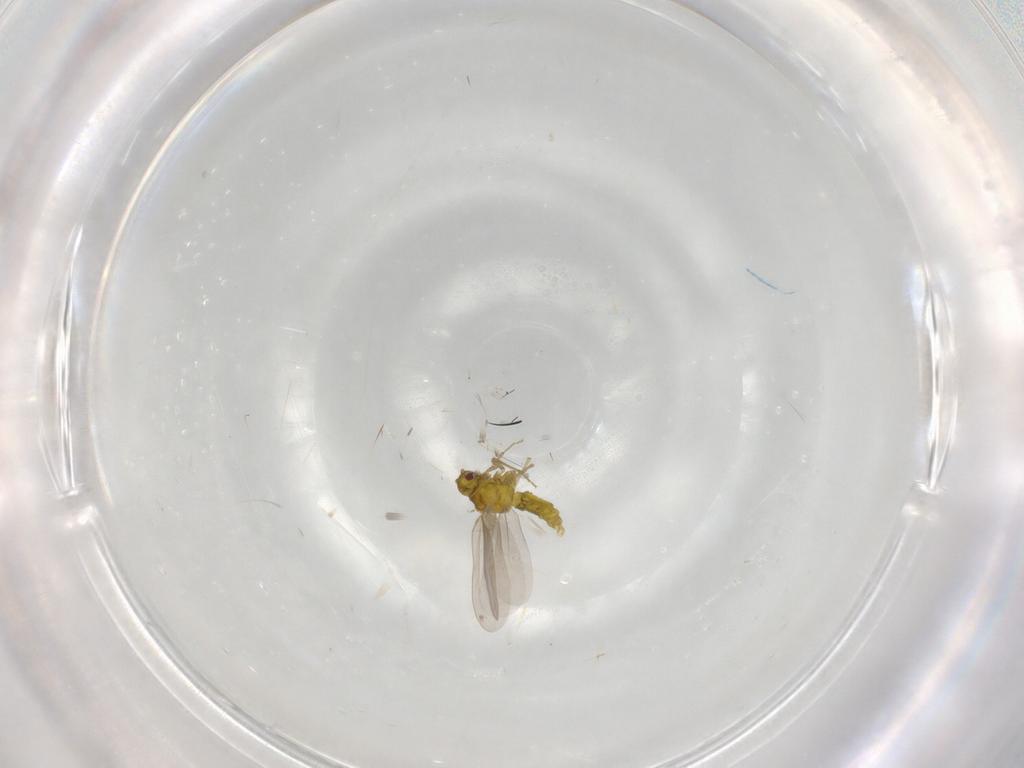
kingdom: Animalia
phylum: Arthropoda
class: Insecta
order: Hemiptera
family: Aleyrodidae
